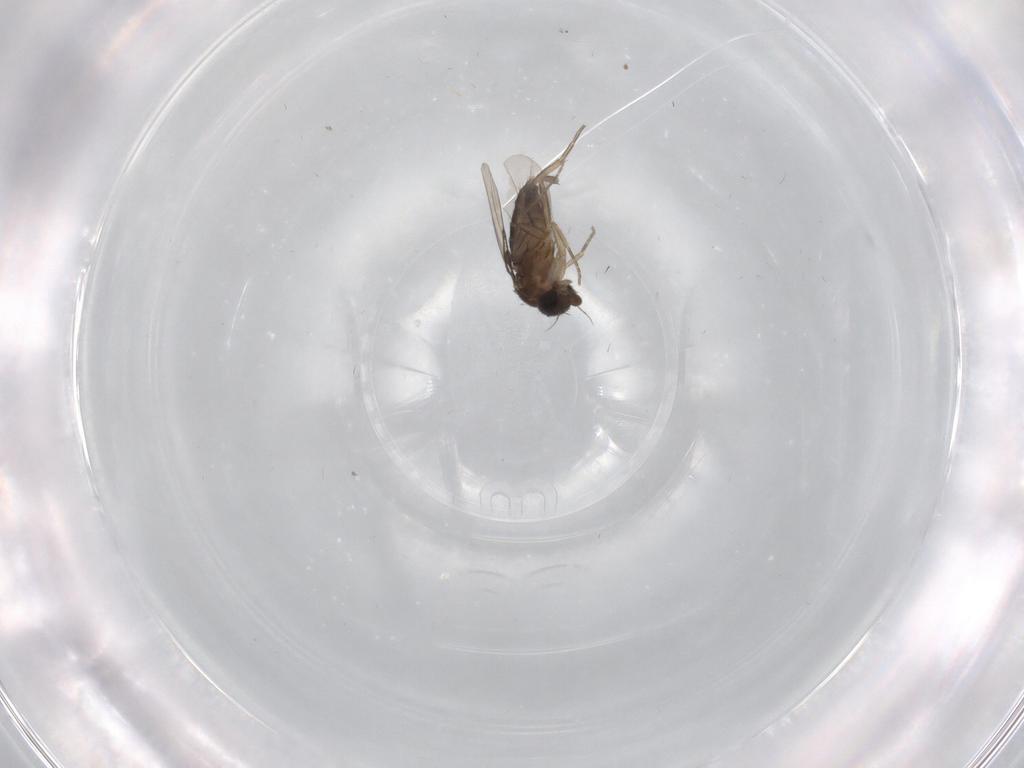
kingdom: Animalia
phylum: Arthropoda
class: Insecta
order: Diptera
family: Phoridae
